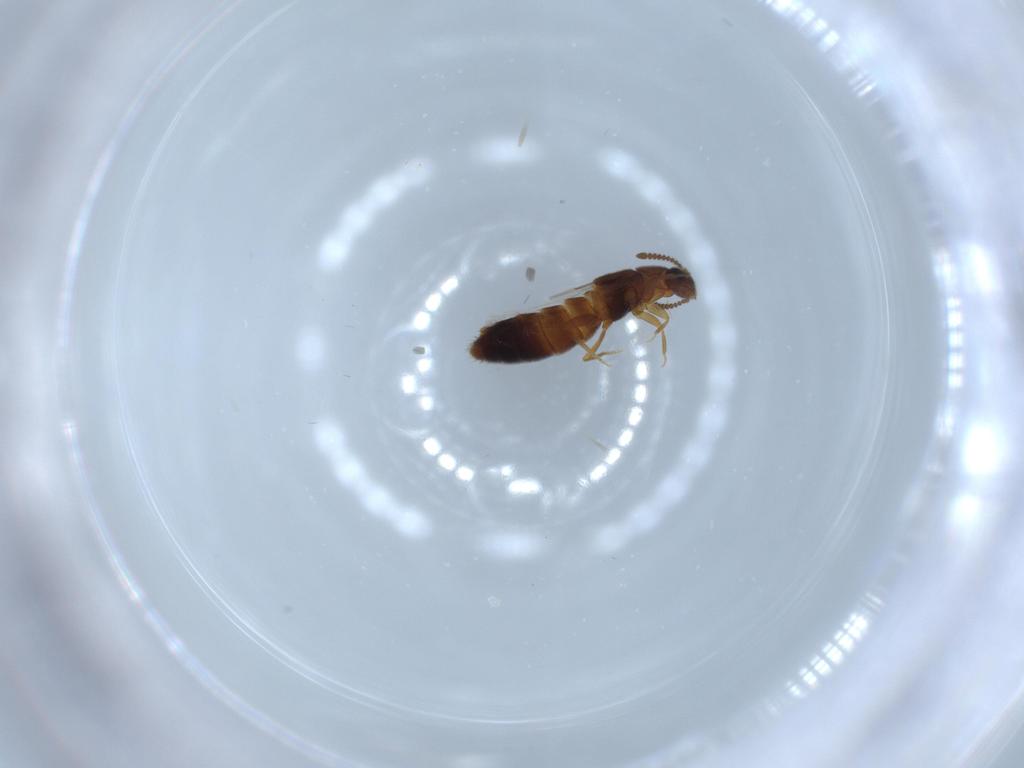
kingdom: Animalia
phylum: Arthropoda
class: Insecta
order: Coleoptera
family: Staphylinidae
